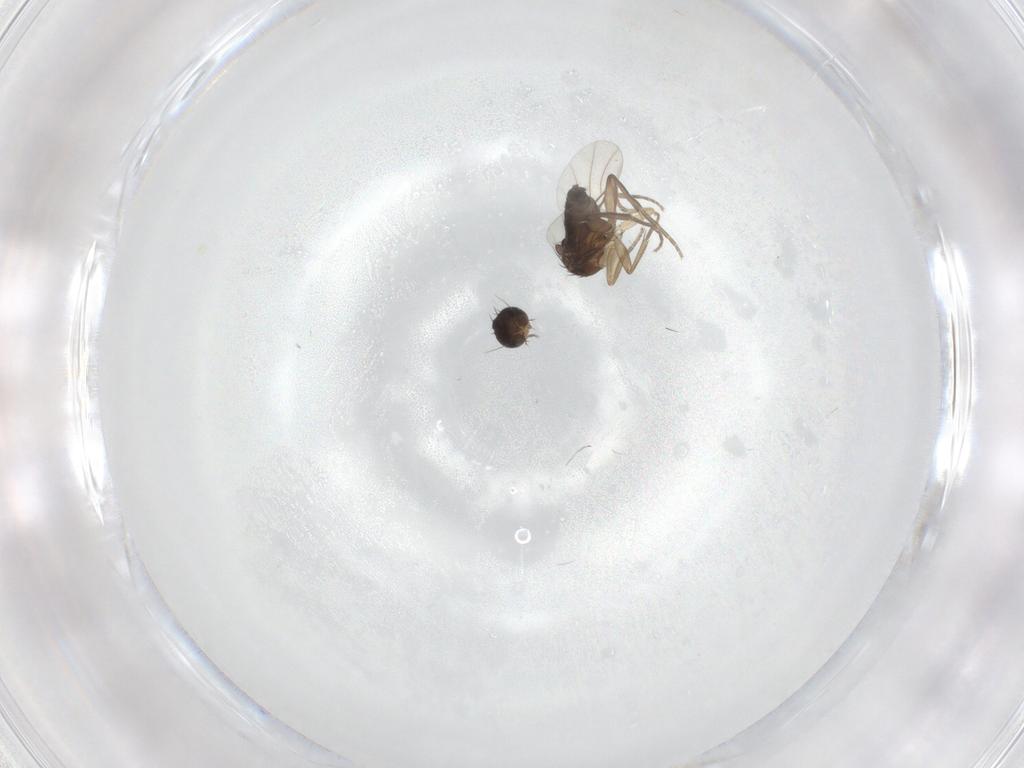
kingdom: Animalia
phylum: Arthropoda
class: Insecta
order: Diptera
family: Phoridae
